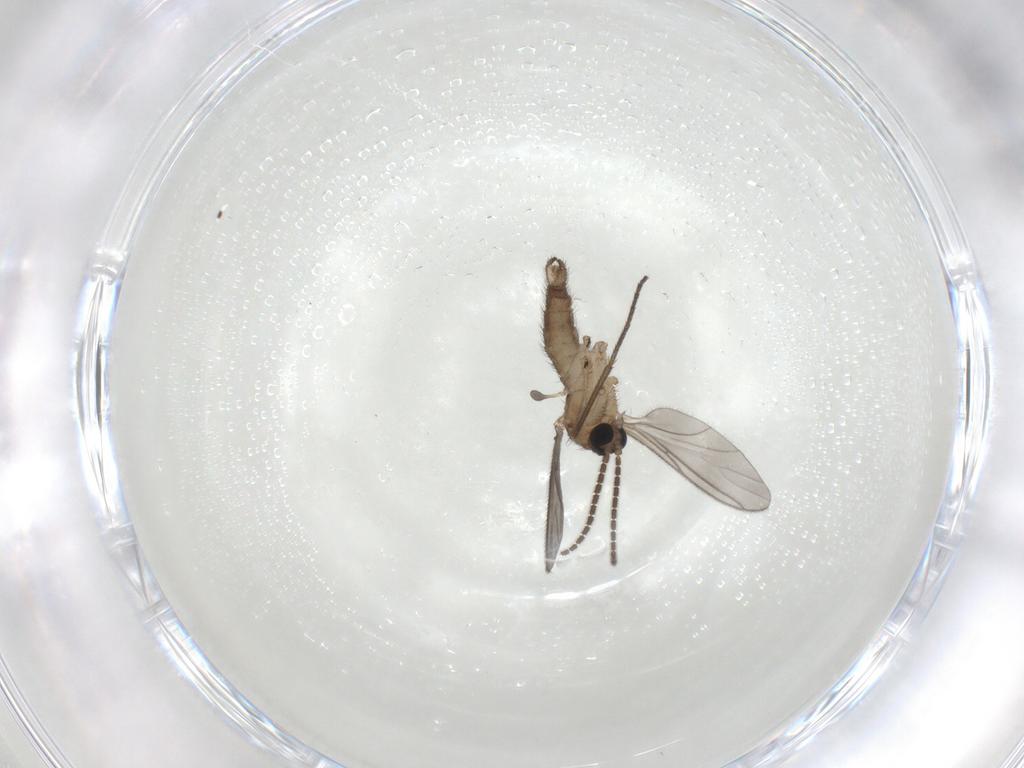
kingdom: Animalia
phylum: Arthropoda
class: Insecta
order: Diptera
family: Sciaridae
